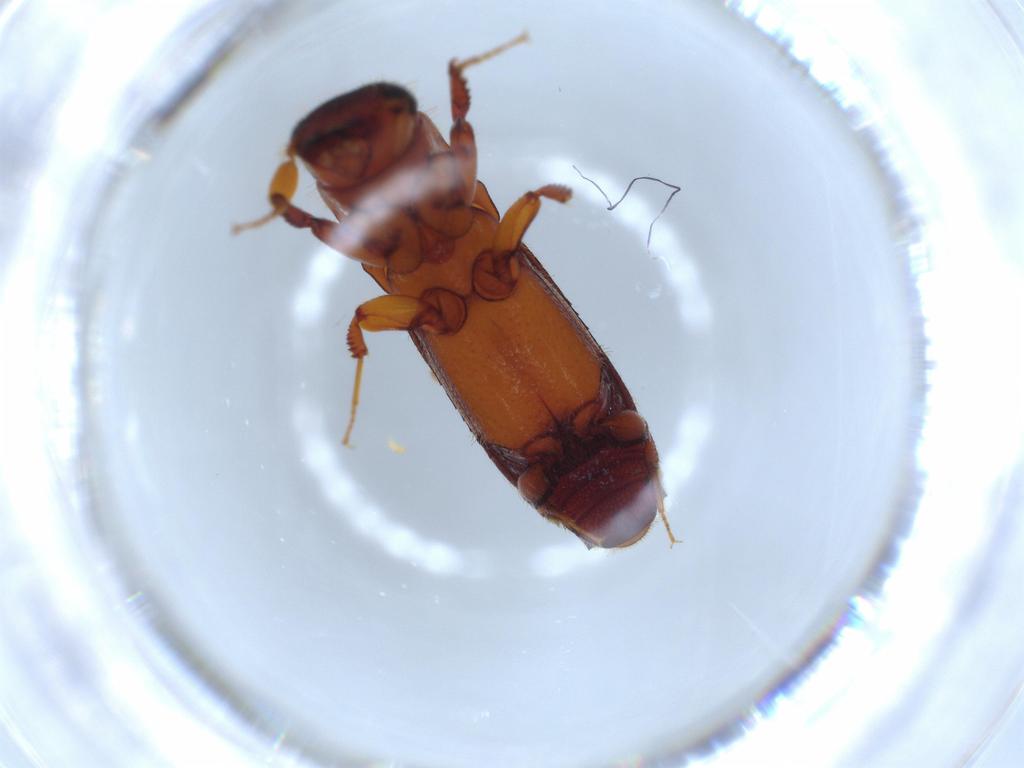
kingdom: Animalia
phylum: Arthropoda
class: Insecta
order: Coleoptera
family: Curculionidae
